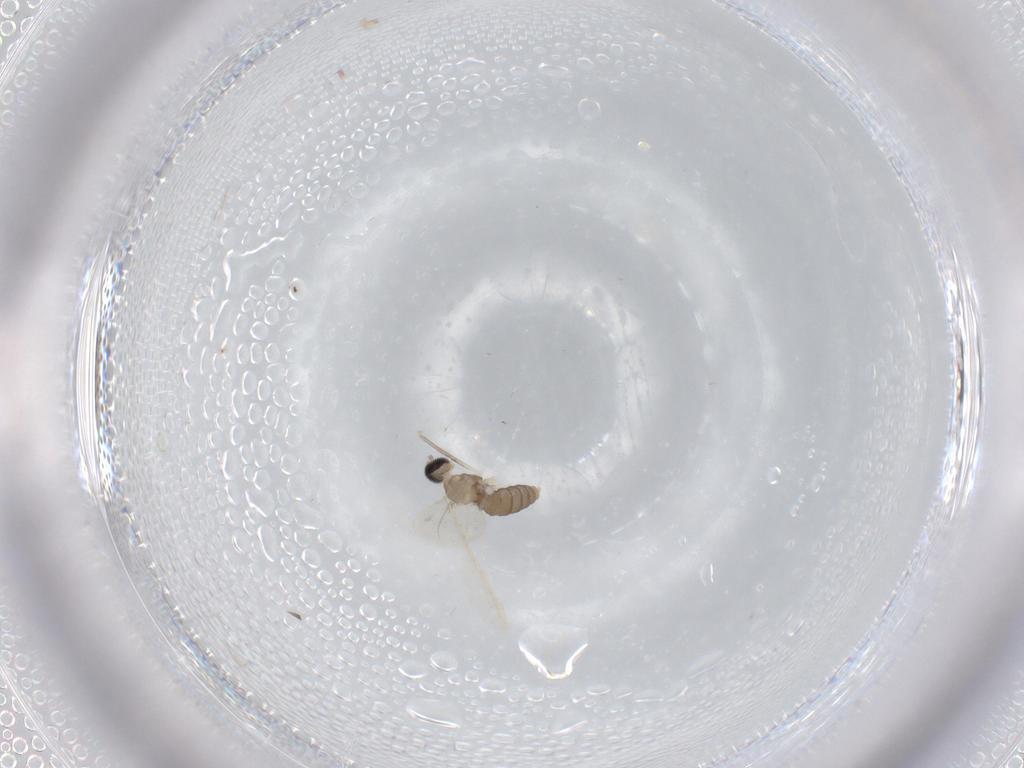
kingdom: Animalia
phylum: Arthropoda
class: Insecta
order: Diptera
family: Cecidomyiidae
